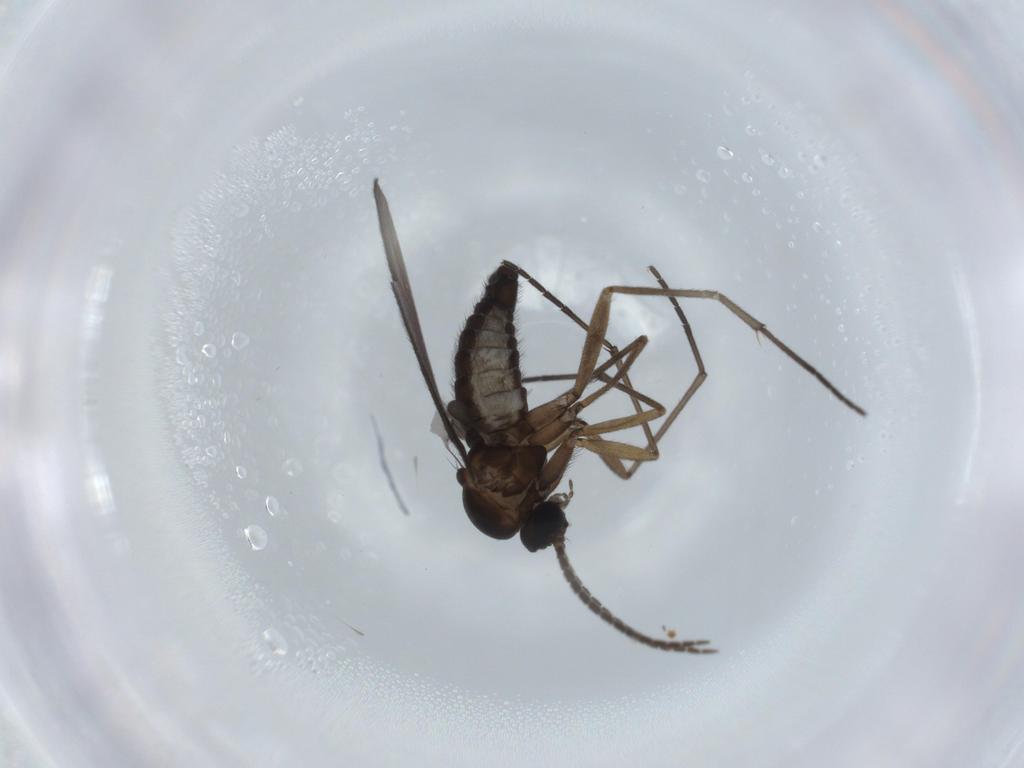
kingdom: Animalia
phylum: Arthropoda
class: Insecta
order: Diptera
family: Sciaridae
